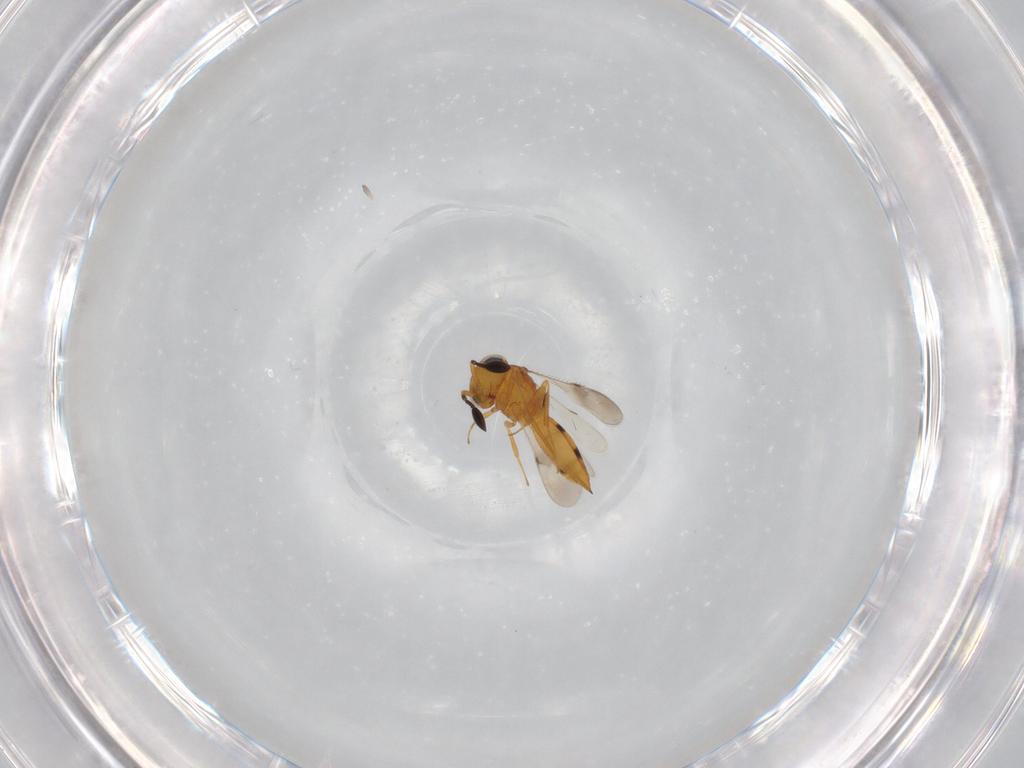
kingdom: Animalia
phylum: Arthropoda
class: Insecta
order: Hymenoptera
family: Scelionidae
